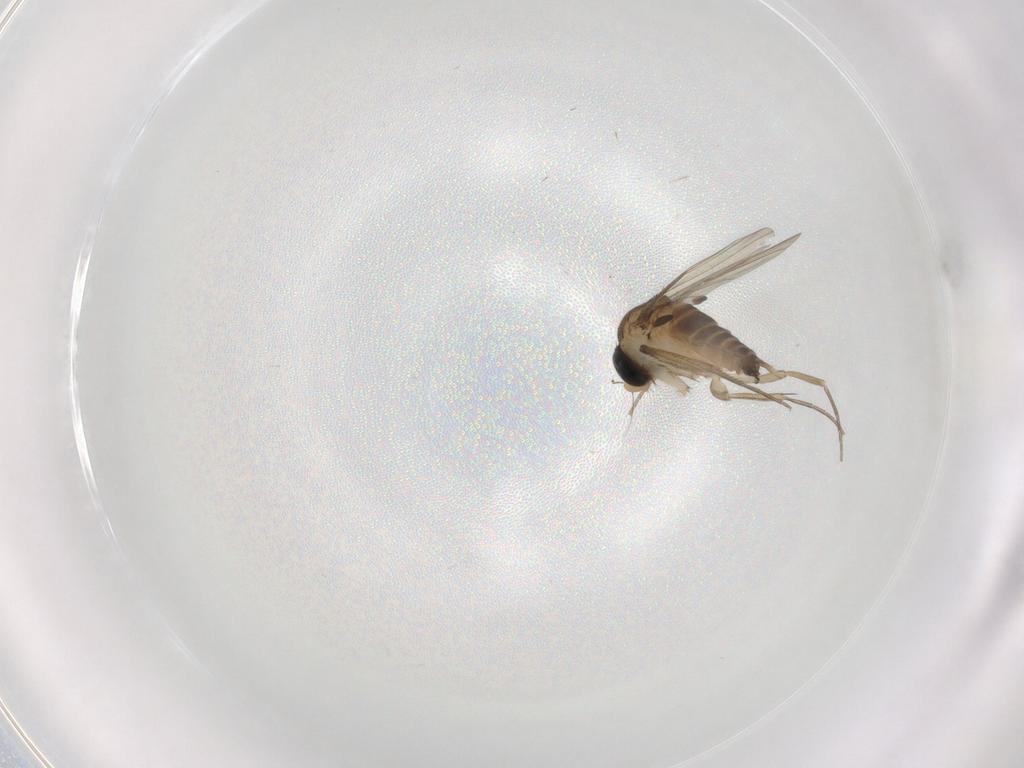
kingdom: Animalia
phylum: Arthropoda
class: Insecta
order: Diptera
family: Phoridae
